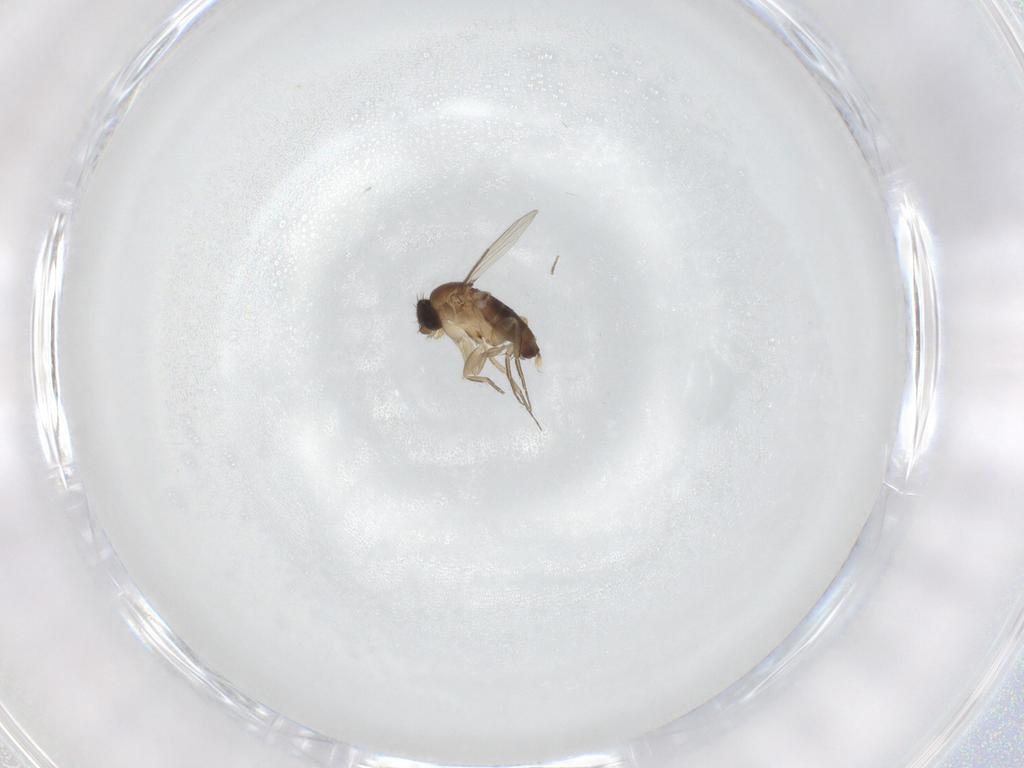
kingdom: Animalia
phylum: Arthropoda
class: Insecta
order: Diptera
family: Phoridae
